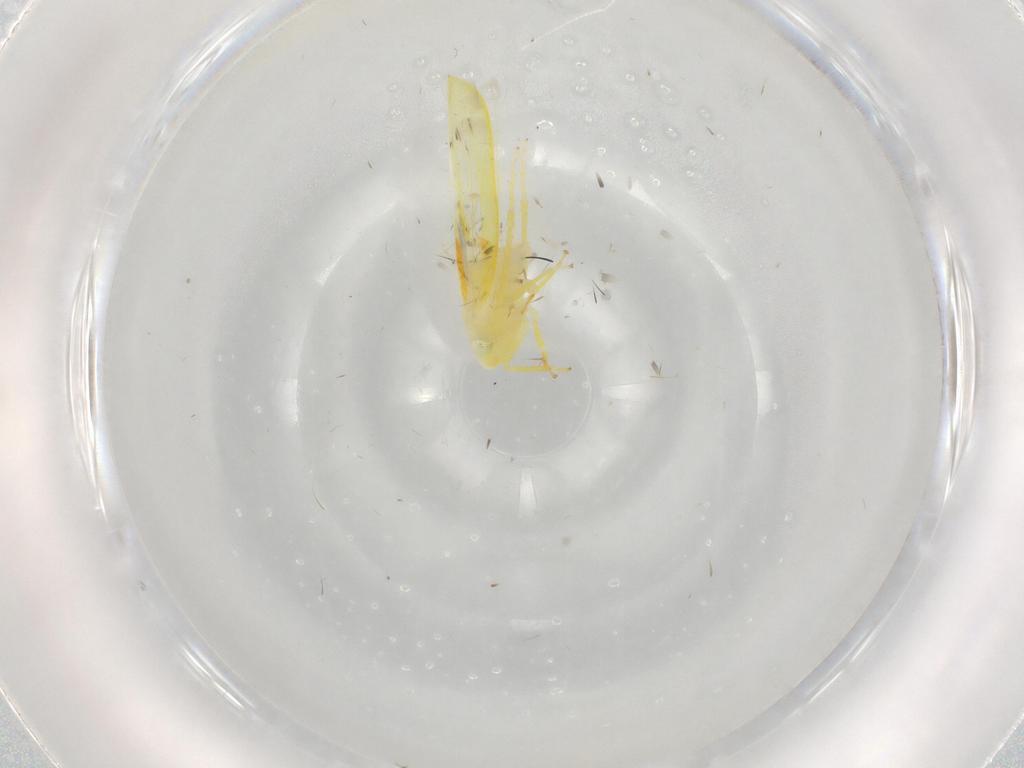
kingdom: Animalia
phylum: Arthropoda
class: Insecta
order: Hemiptera
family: Cicadellidae
